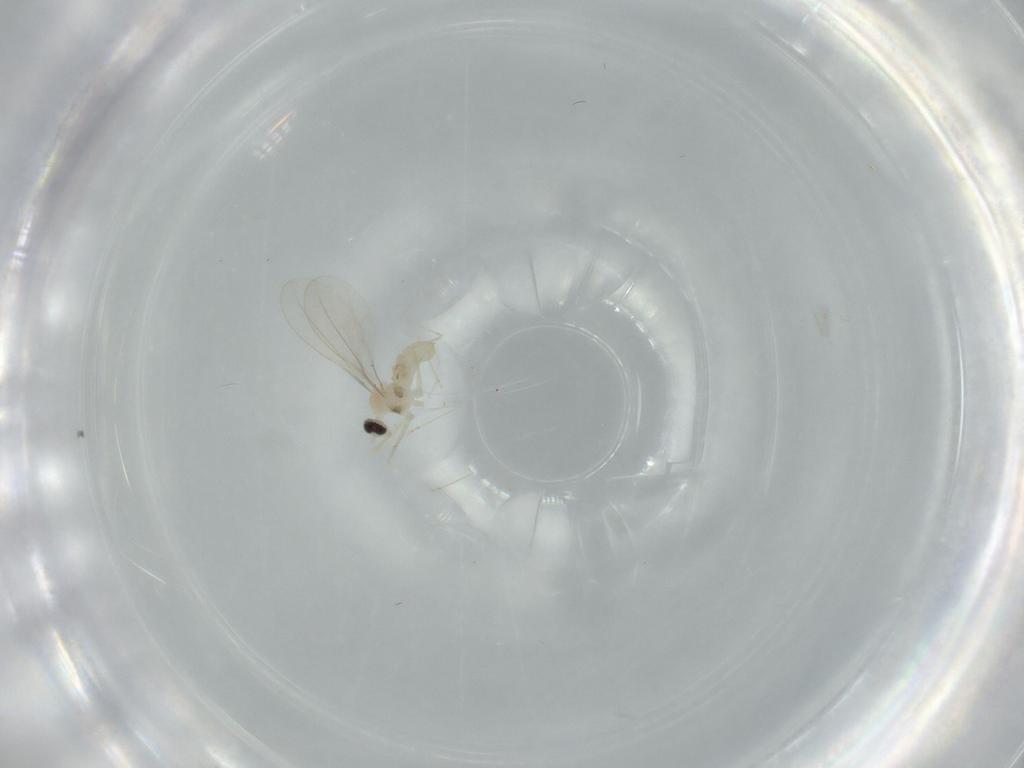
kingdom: Animalia
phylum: Arthropoda
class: Insecta
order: Diptera
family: Cecidomyiidae
